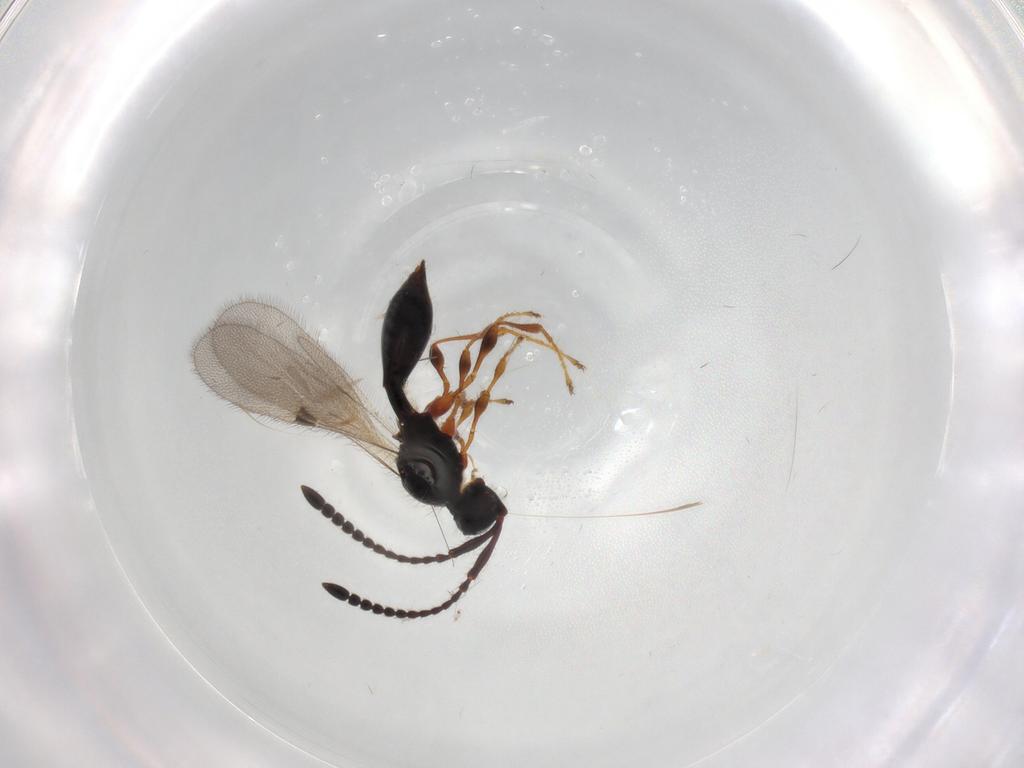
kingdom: Animalia
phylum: Arthropoda
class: Insecta
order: Hymenoptera
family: Diapriidae
